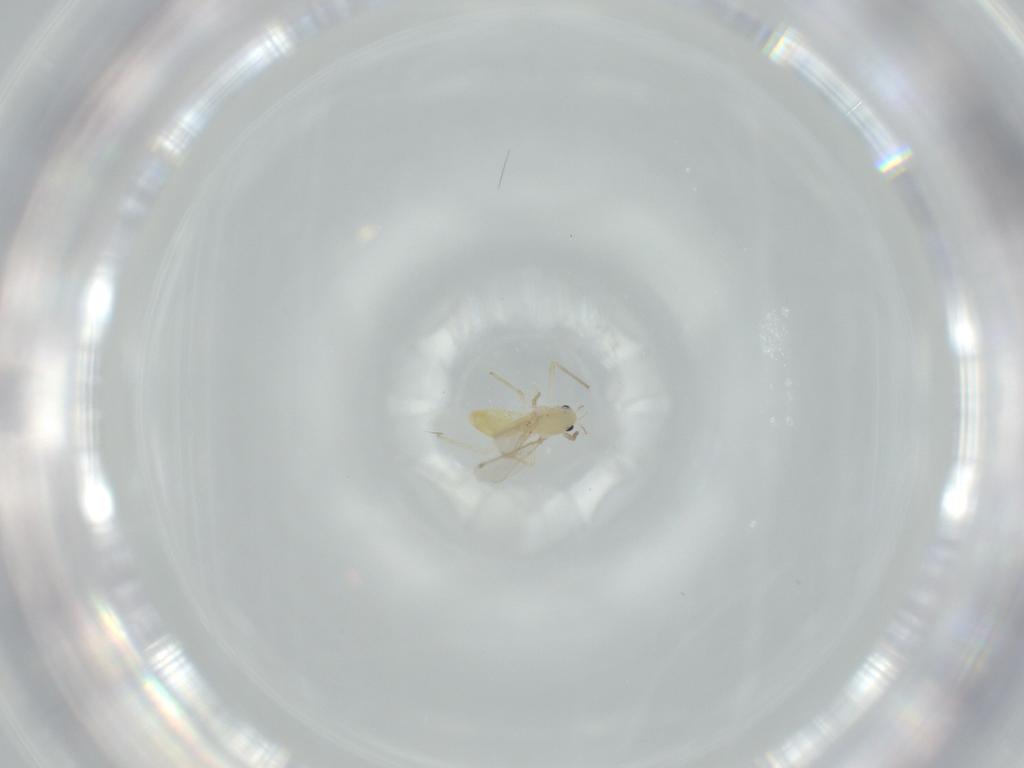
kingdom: Animalia
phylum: Arthropoda
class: Insecta
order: Diptera
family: Chironomidae
